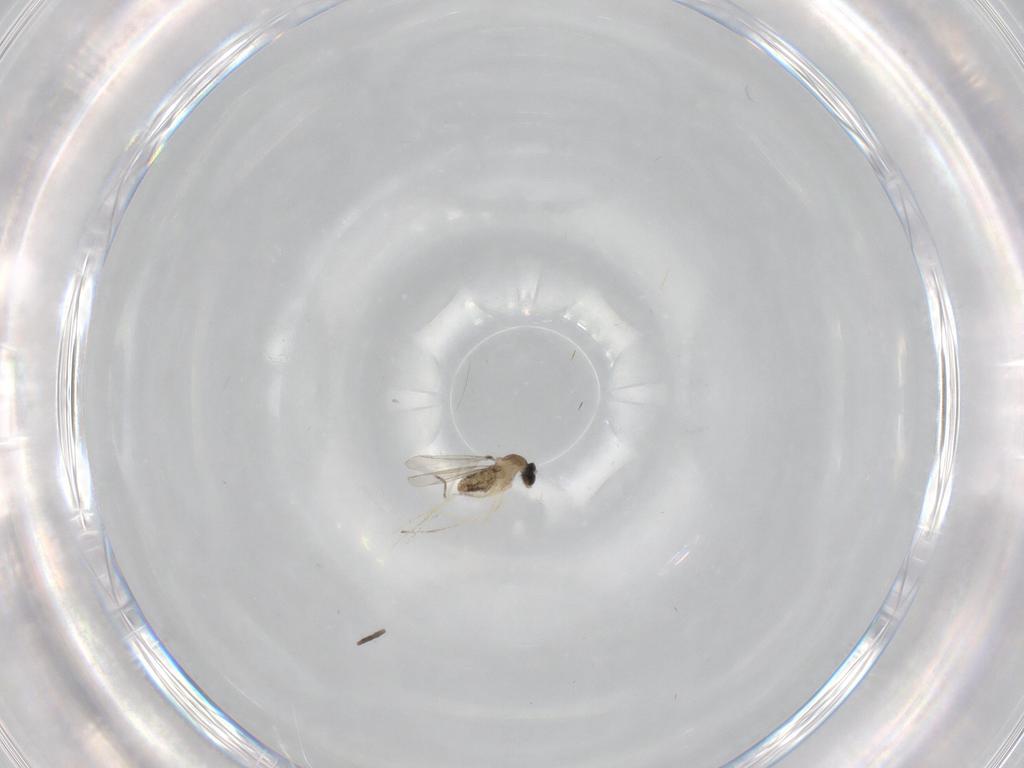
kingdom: Animalia
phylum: Arthropoda
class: Insecta
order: Diptera
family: Cecidomyiidae
